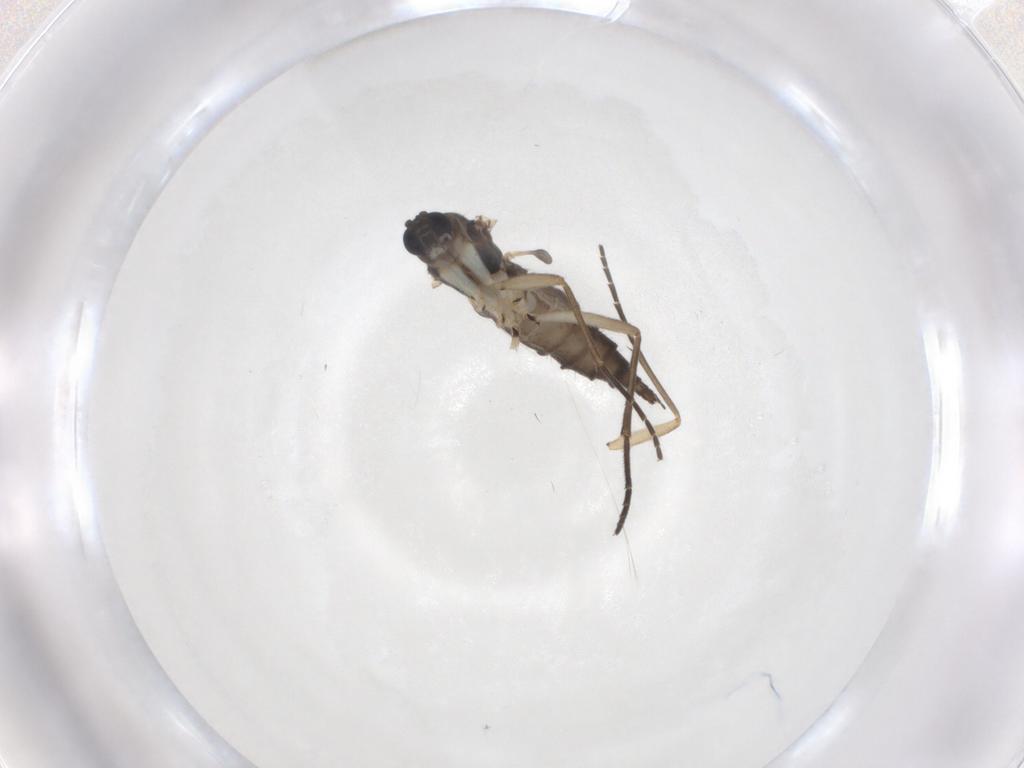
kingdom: Animalia
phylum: Arthropoda
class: Insecta
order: Diptera
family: Sciaridae
